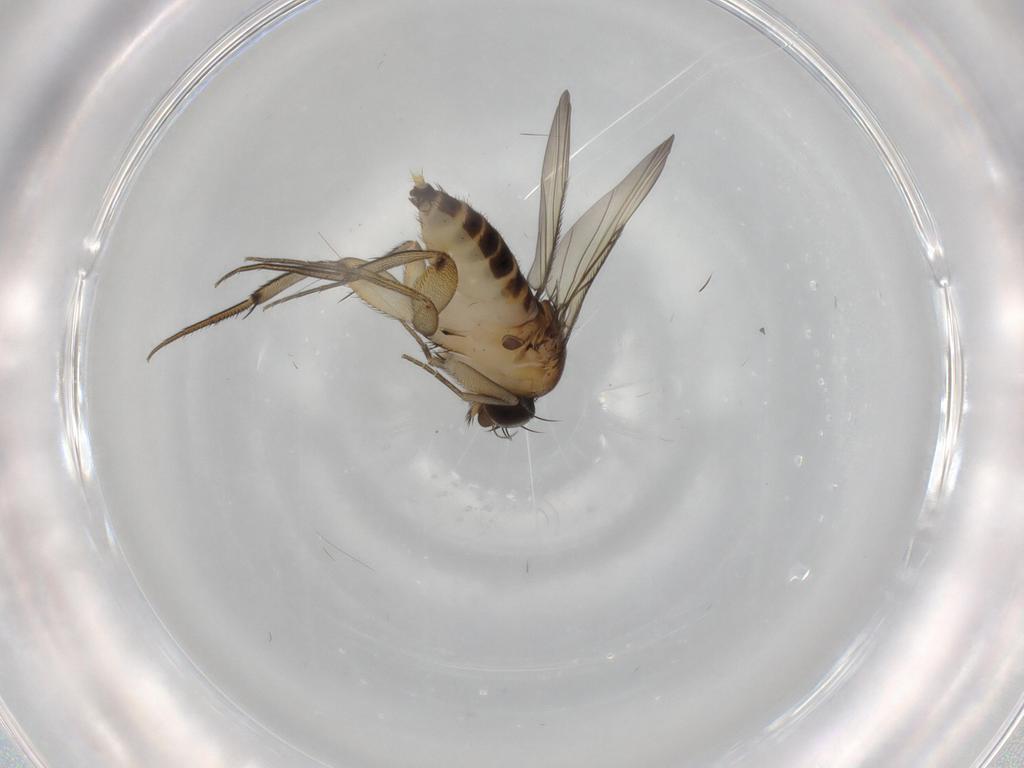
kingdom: Animalia
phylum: Arthropoda
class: Insecta
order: Diptera
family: Phoridae
